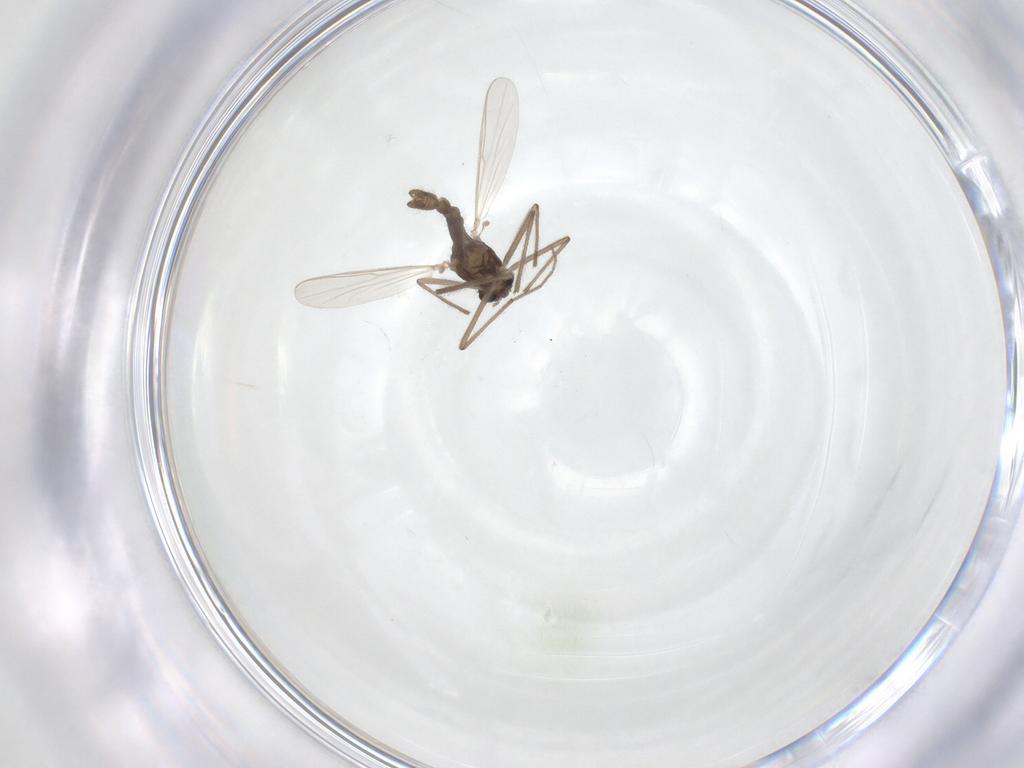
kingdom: Animalia
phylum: Arthropoda
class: Insecta
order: Diptera
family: Chironomidae
